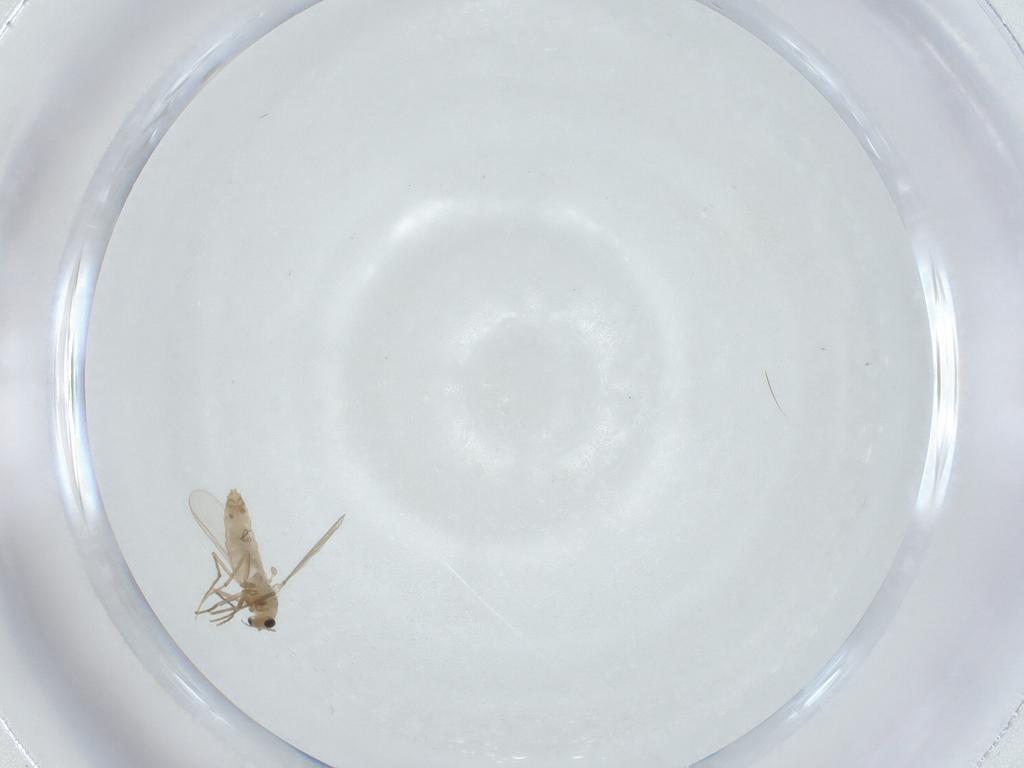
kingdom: Animalia
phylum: Arthropoda
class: Insecta
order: Diptera
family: Chironomidae
